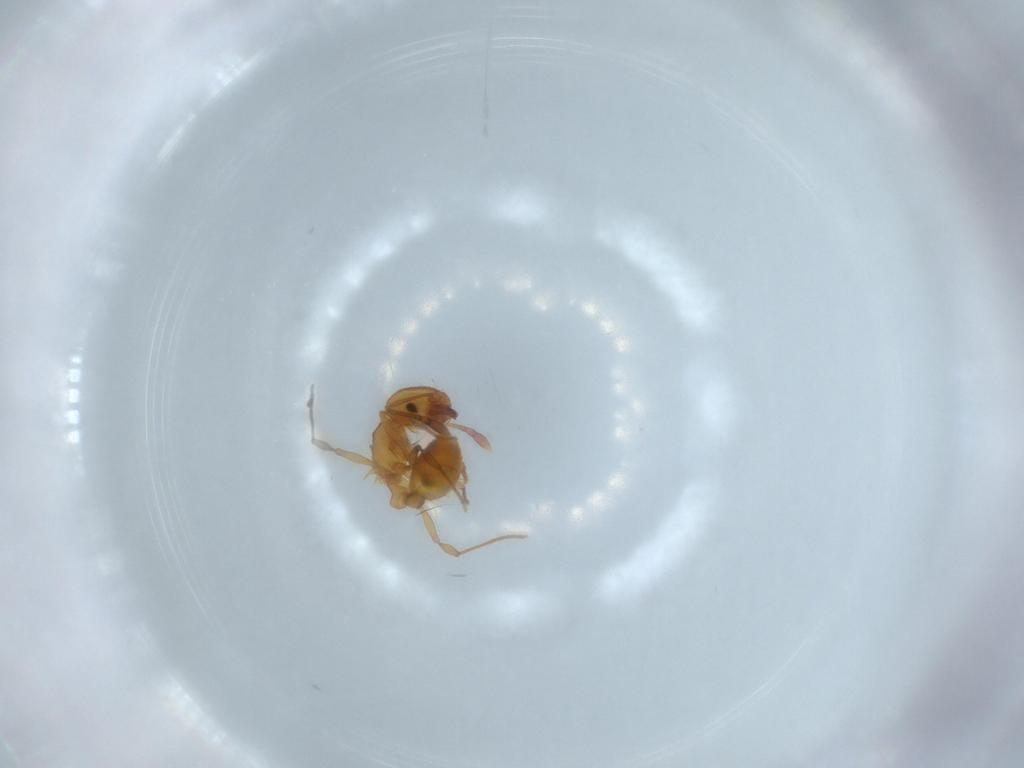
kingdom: Animalia
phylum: Arthropoda
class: Insecta
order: Hymenoptera
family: Formicidae
